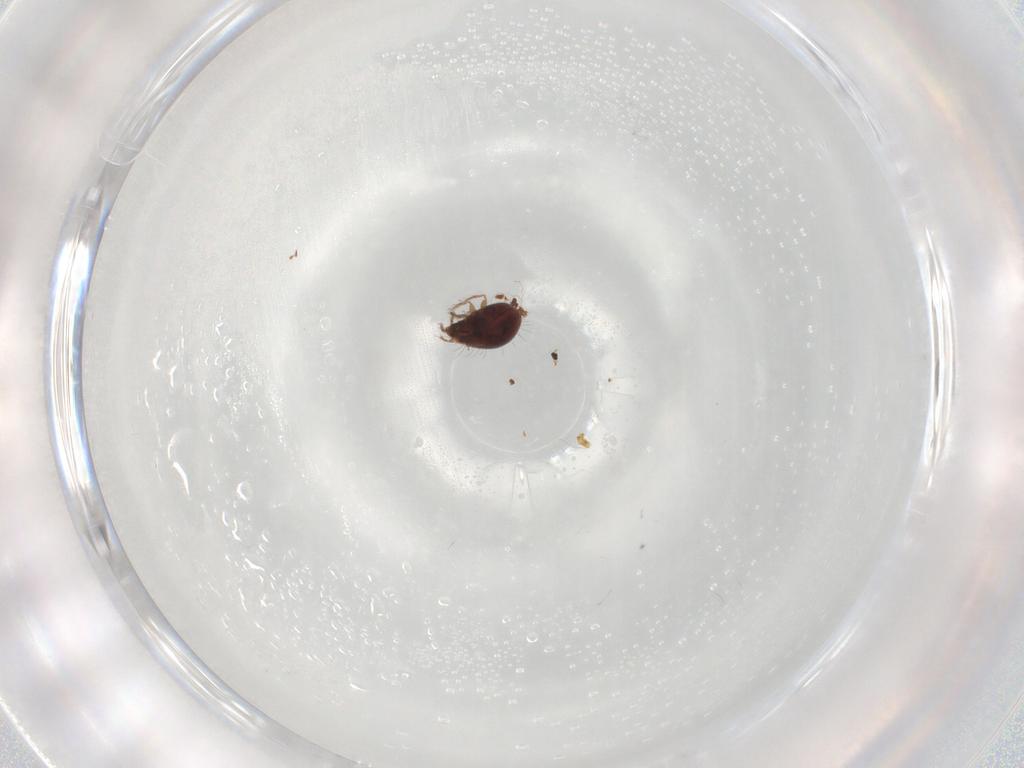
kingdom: Animalia
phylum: Arthropoda
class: Arachnida
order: Sarcoptiformes
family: Humerobatidae
